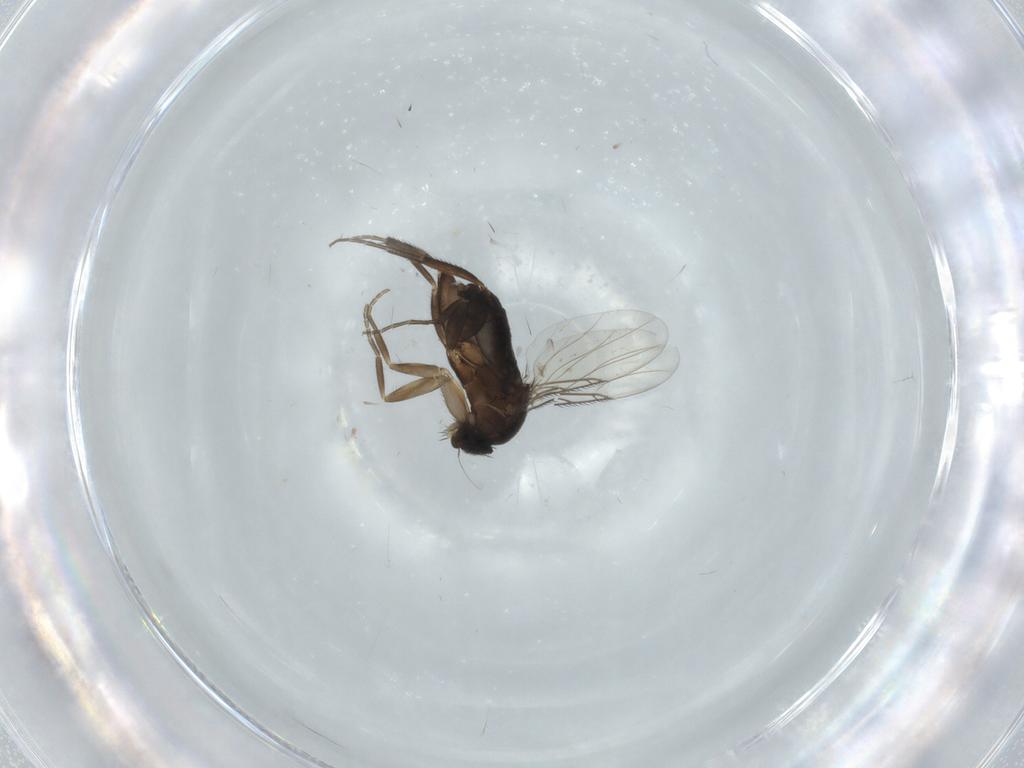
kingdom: Animalia
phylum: Arthropoda
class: Insecta
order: Diptera
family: Phoridae
